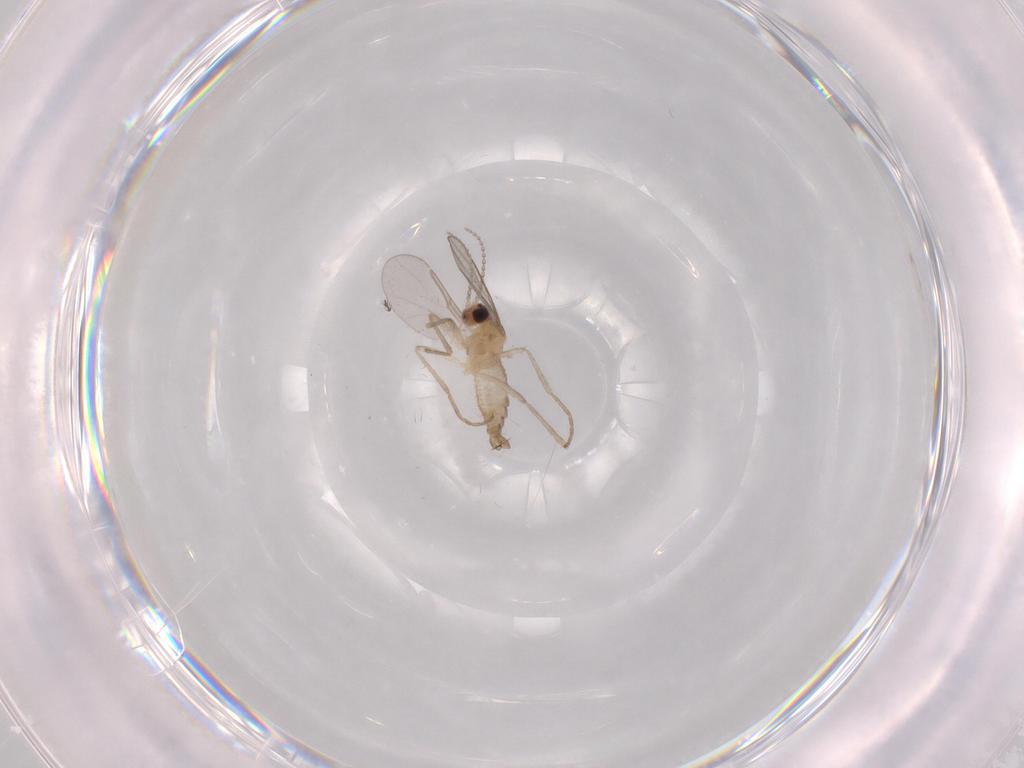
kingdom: Animalia
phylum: Arthropoda
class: Insecta
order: Diptera
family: Cecidomyiidae
